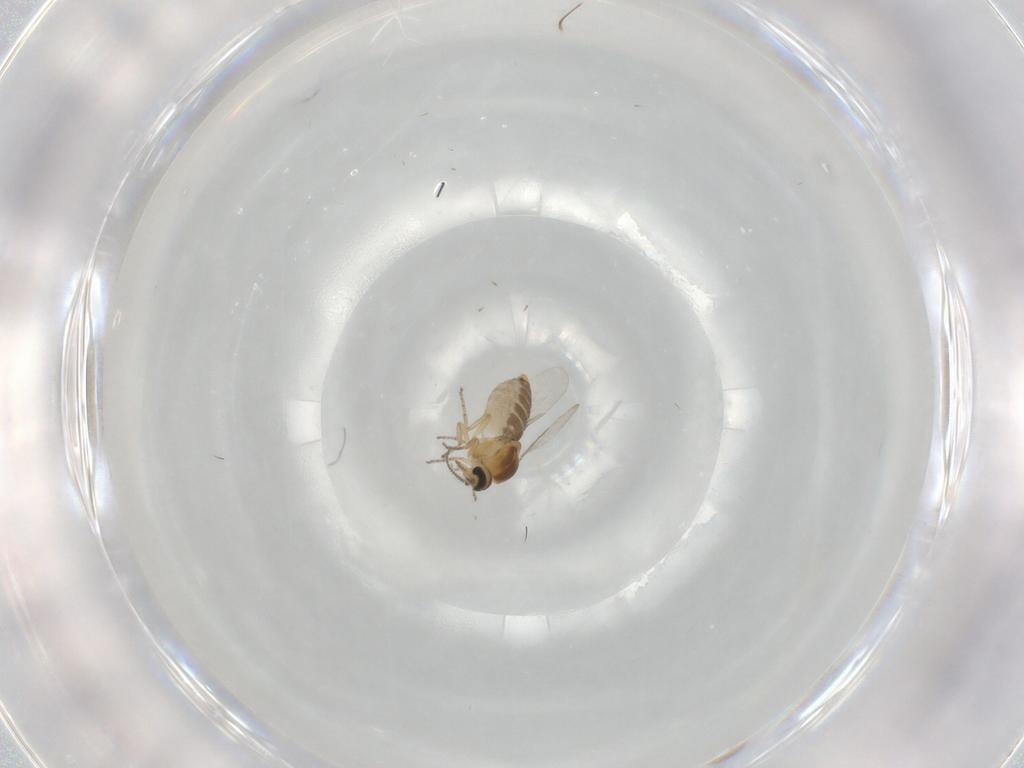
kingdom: Animalia
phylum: Arthropoda
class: Insecta
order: Diptera
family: Ceratopogonidae
